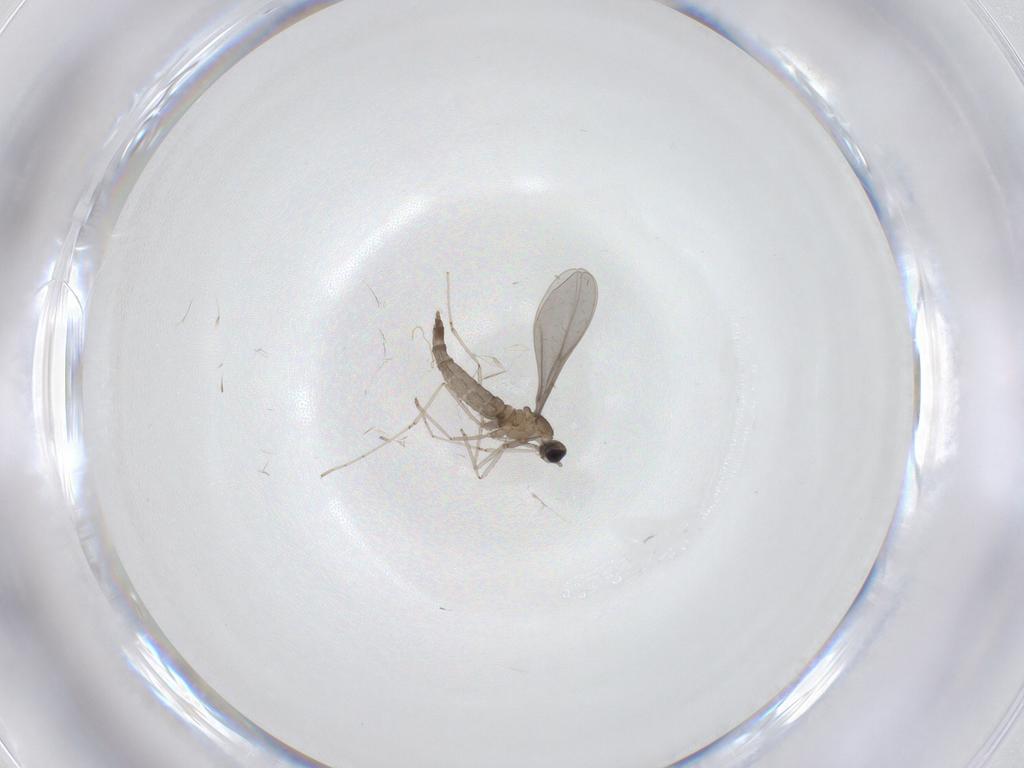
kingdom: Animalia
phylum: Arthropoda
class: Insecta
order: Diptera
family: Cecidomyiidae
